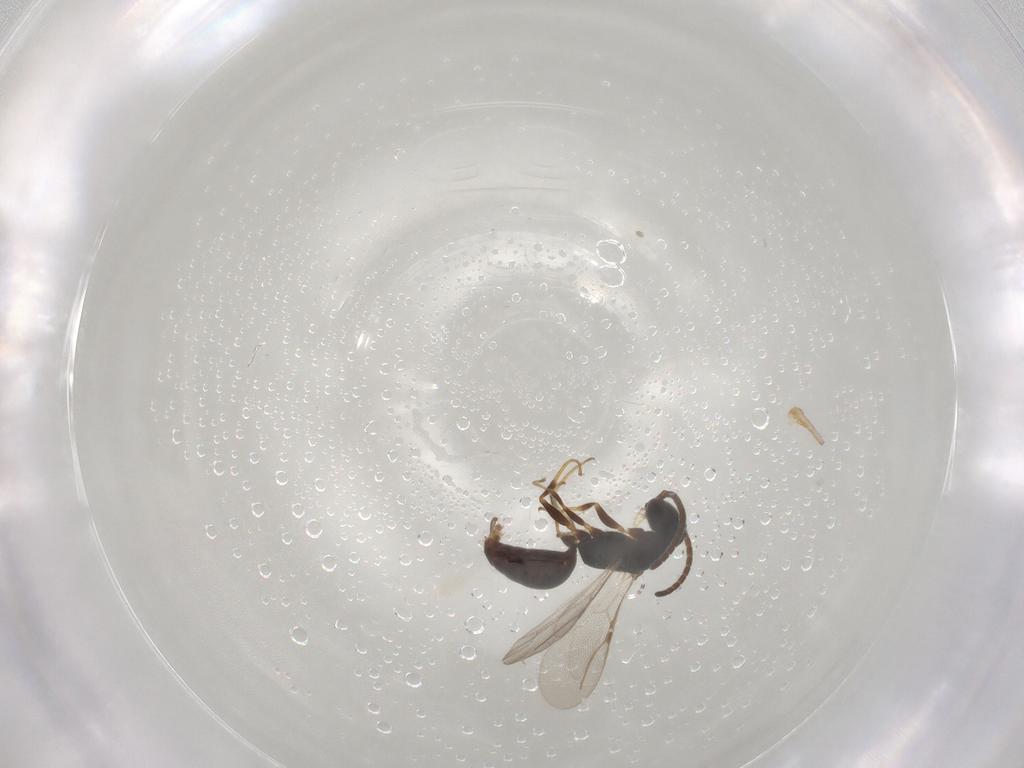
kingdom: Animalia
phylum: Arthropoda
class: Insecta
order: Hymenoptera
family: Bethylidae
